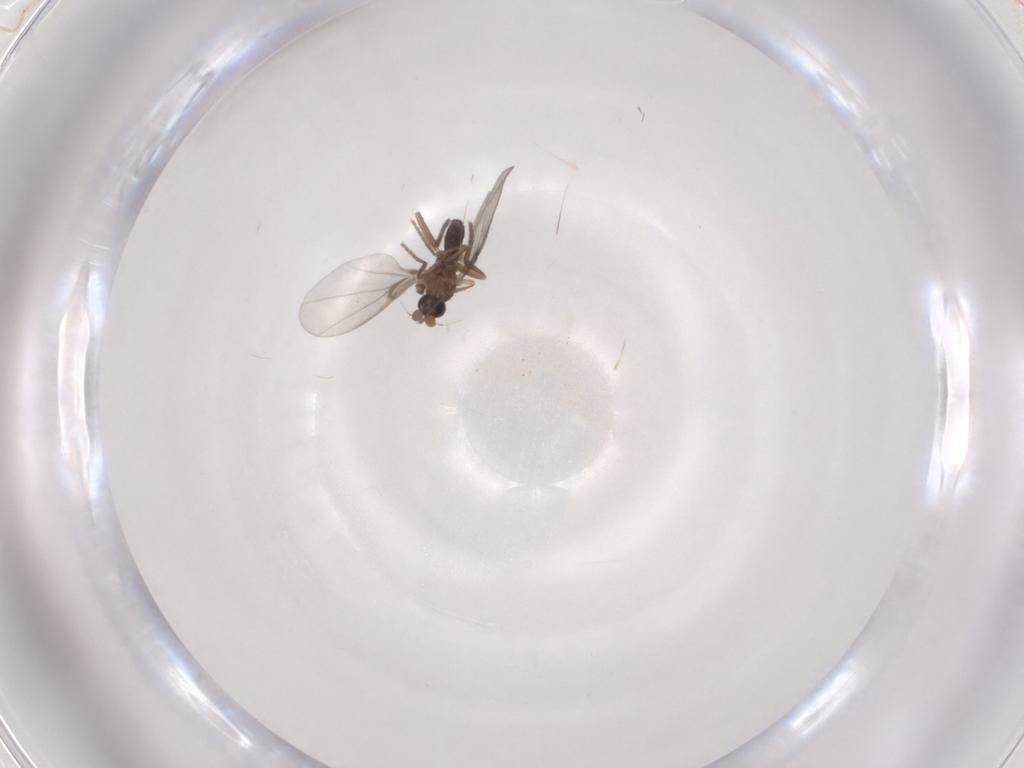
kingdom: Animalia
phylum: Arthropoda
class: Insecta
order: Diptera
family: Phoridae
